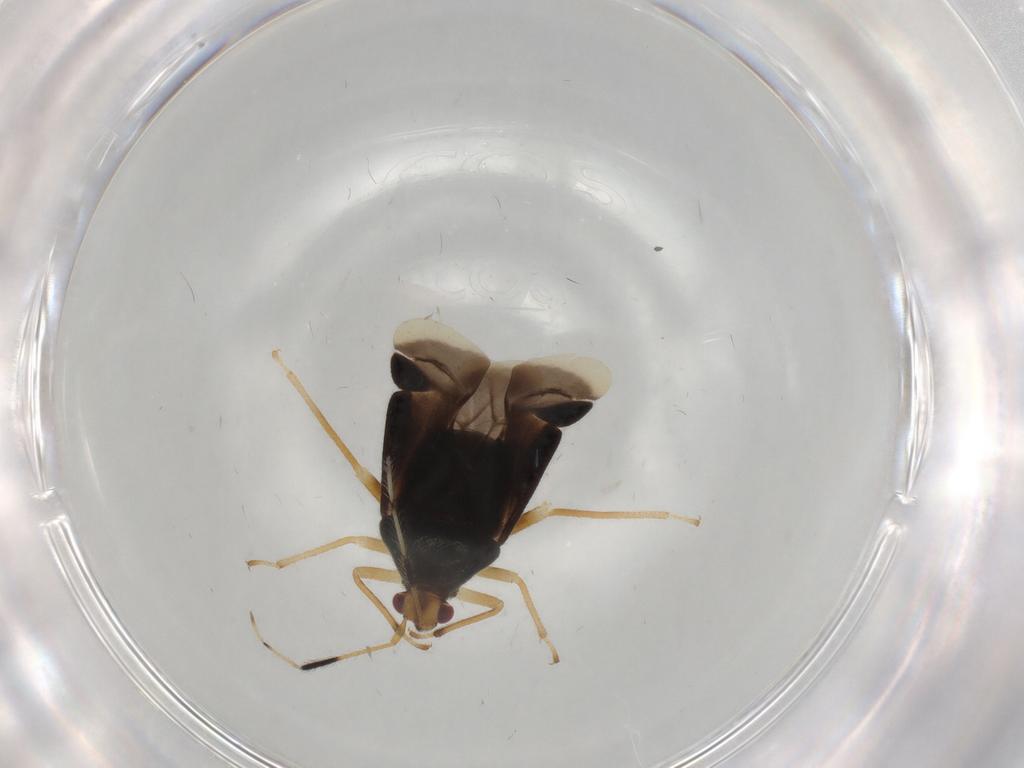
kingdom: Animalia
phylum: Arthropoda
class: Insecta
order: Hemiptera
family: Miridae
